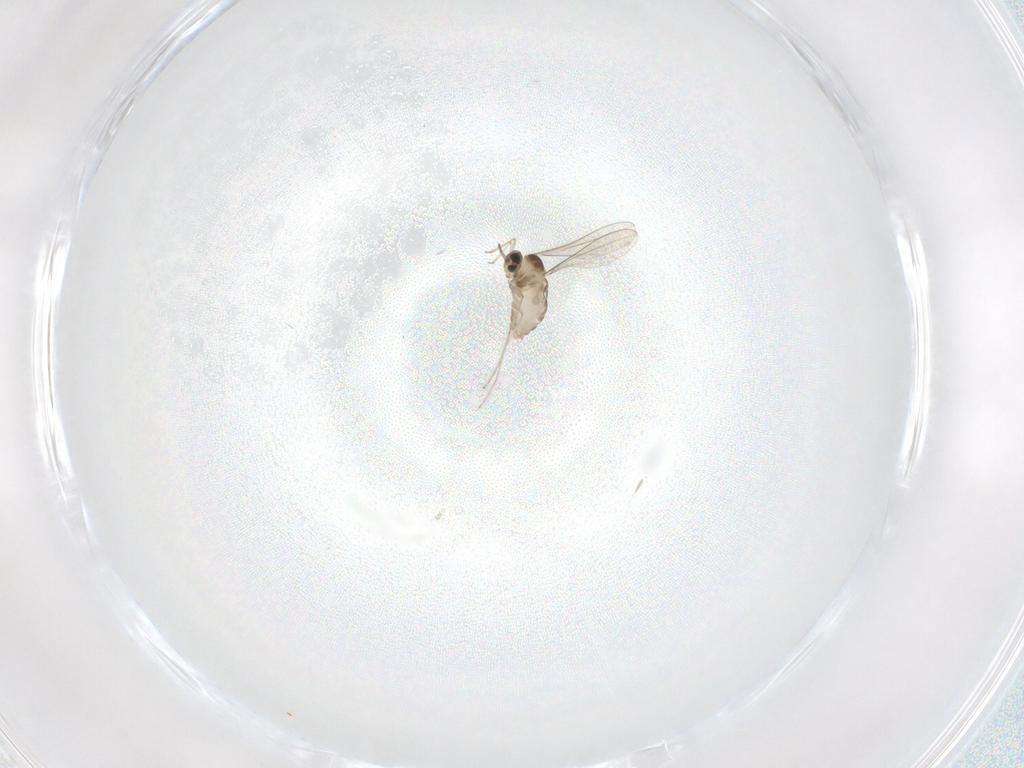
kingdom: Animalia
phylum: Arthropoda
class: Insecta
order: Diptera
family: Cecidomyiidae
